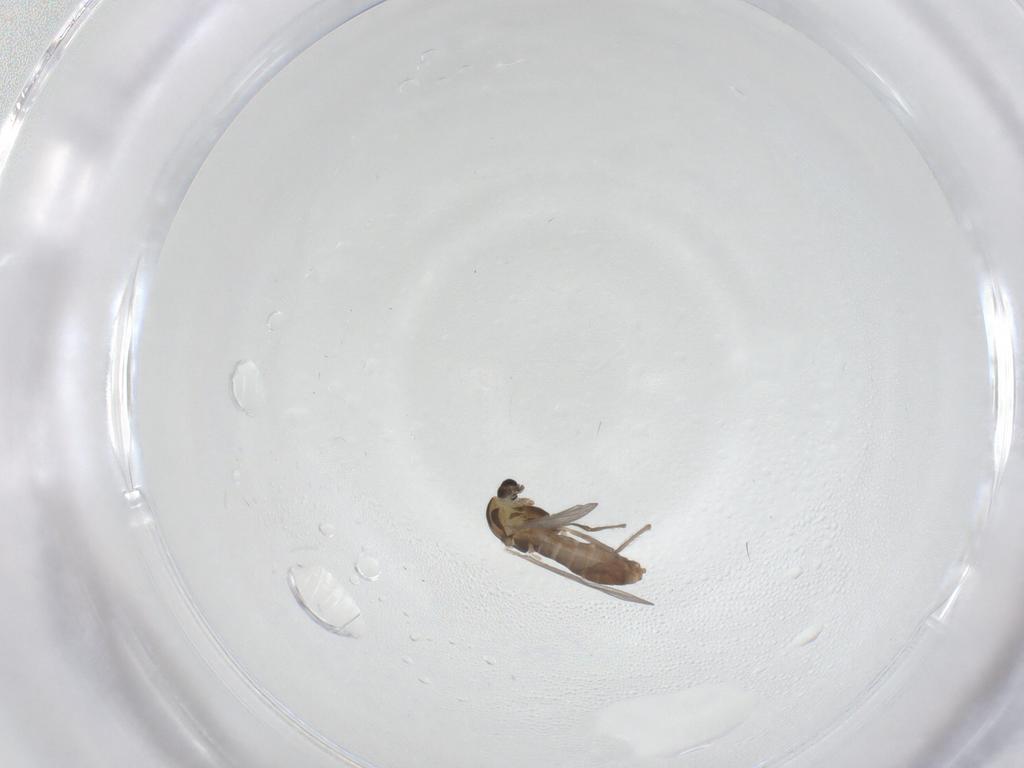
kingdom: Animalia
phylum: Arthropoda
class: Insecta
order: Diptera
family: Chironomidae
